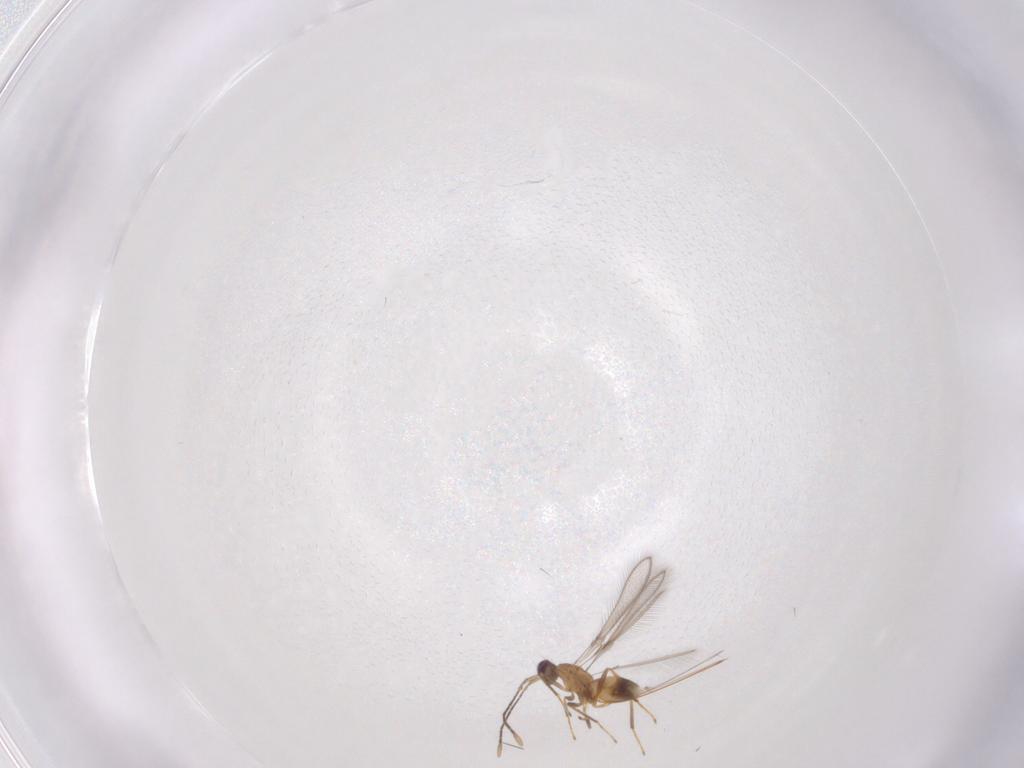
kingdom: Animalia
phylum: Arthropoda
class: Insecta
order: Hymenoptera
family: Mymaridae
